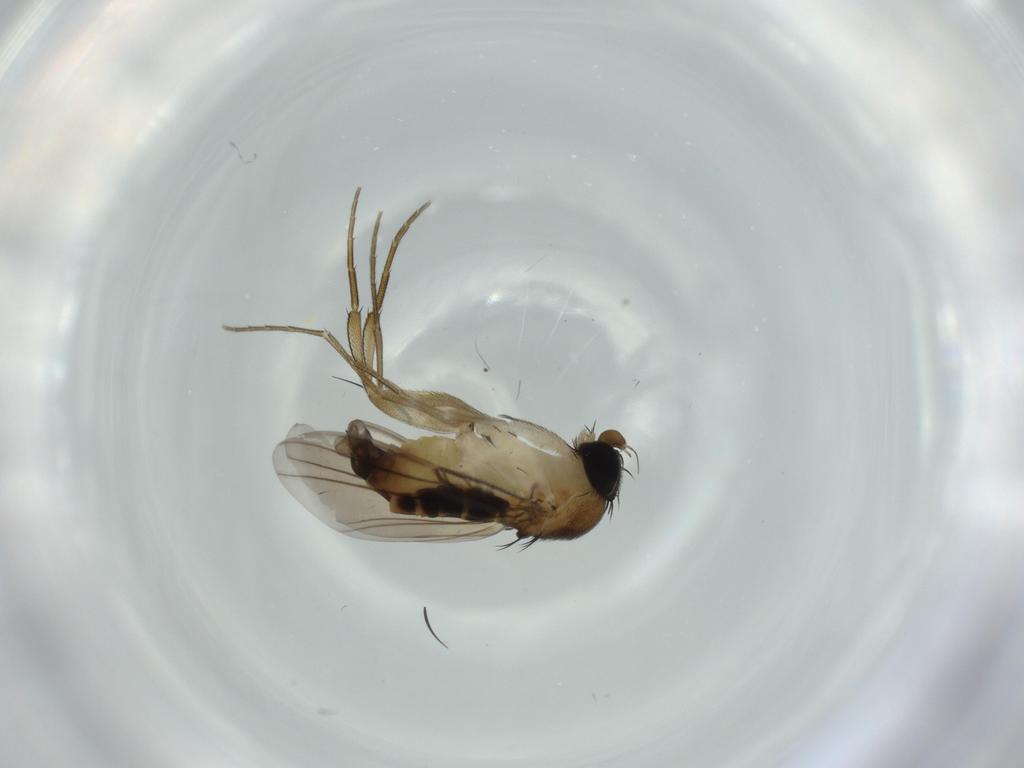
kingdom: Animalia
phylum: Arthropoda
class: Insecta
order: Diptera
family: Phoridae
